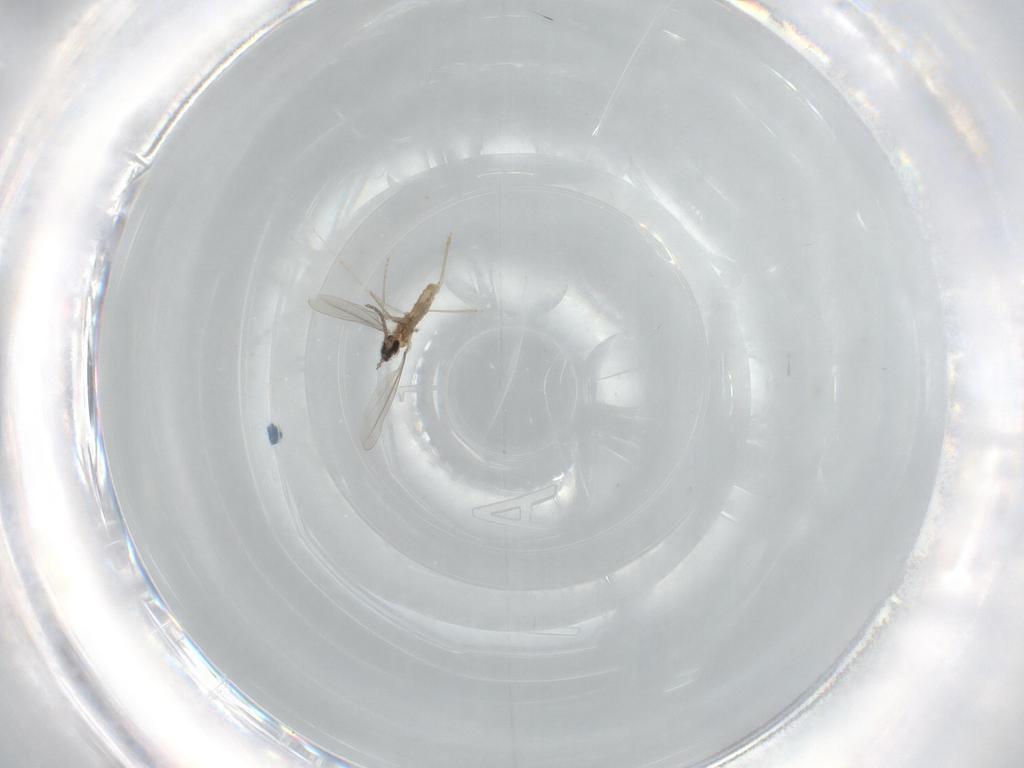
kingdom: Animalia
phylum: Arthropoda
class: Insecta
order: Diptera
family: Cecidomyiidae
